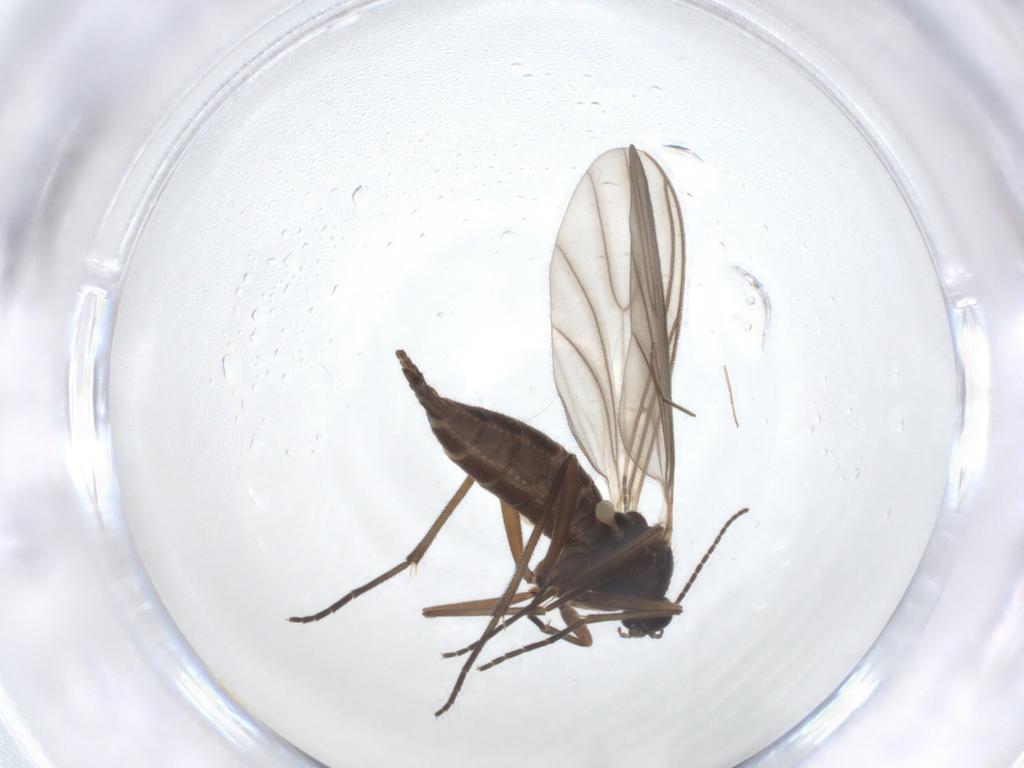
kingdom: Animalia
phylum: Arthropoda
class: Insecta
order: Diptera
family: Sciaridae
